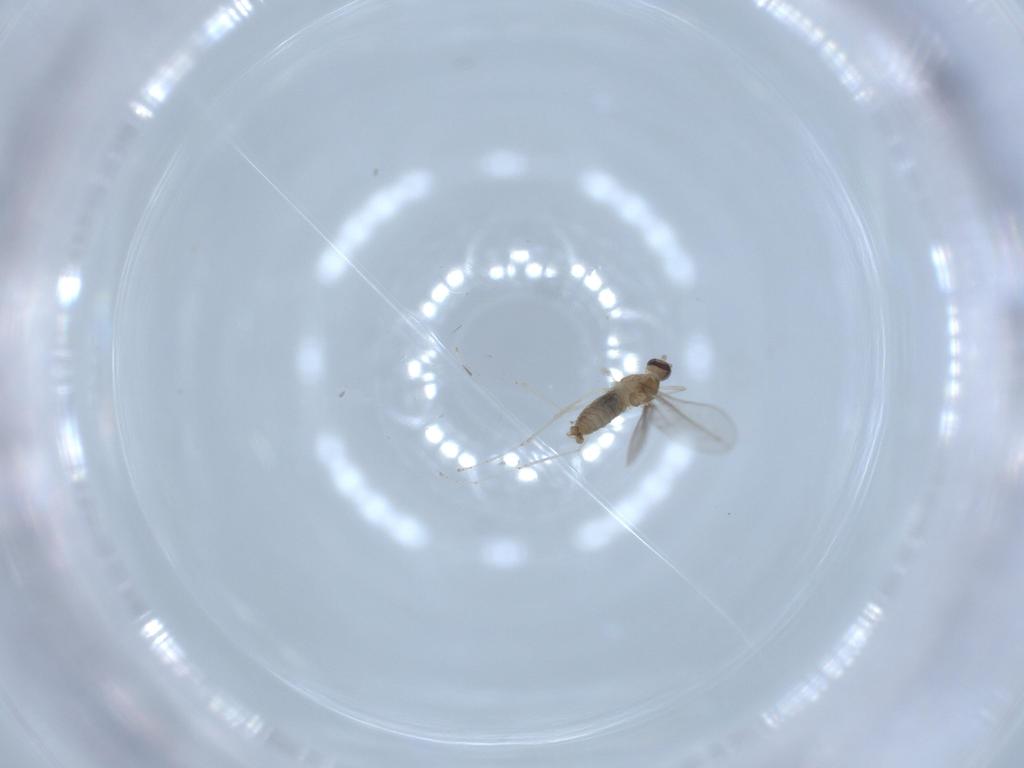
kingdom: Animalia
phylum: Arthropoda
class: Insecta
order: Diptera
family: Cecidomyiidae
